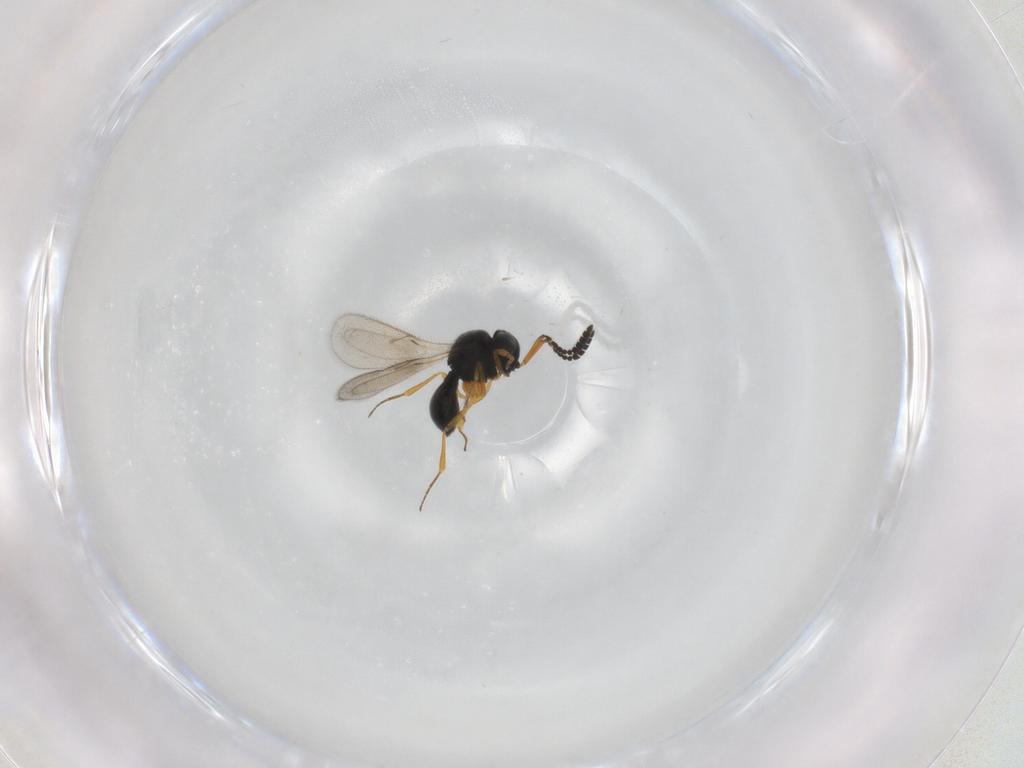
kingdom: Animalia
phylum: Arthropoda
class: Insecta
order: Hymenoptera
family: Scelionidae
